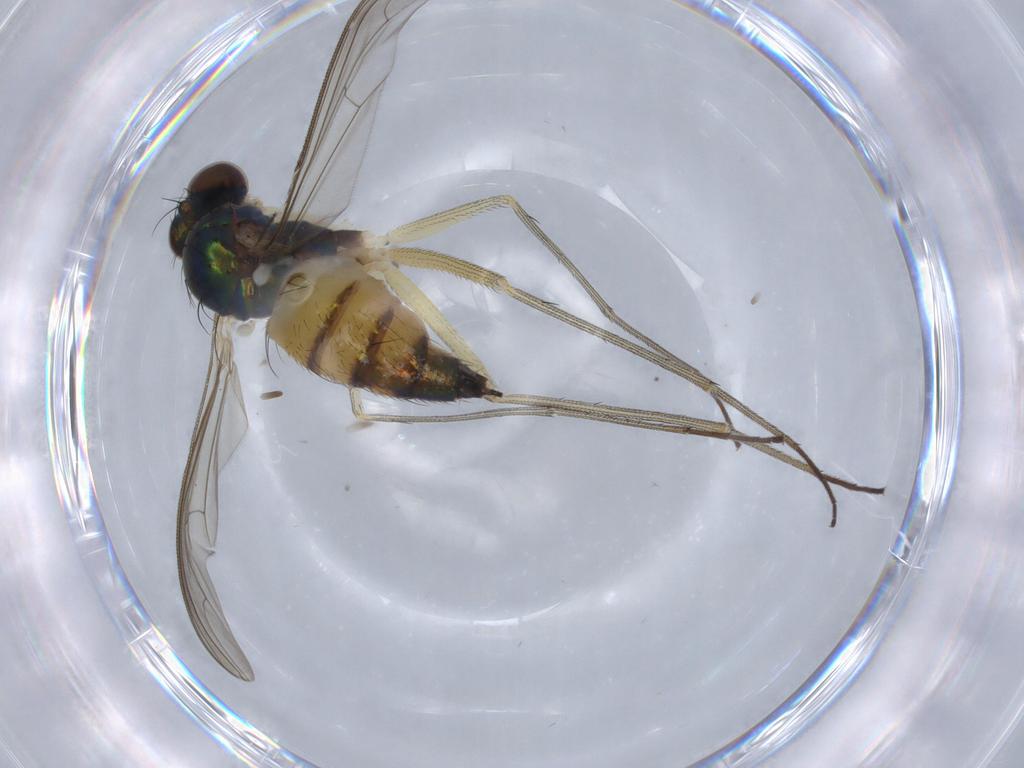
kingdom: Animalia
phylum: Arthropoda
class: Insecta
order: Diptera
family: Dolichopodidae
